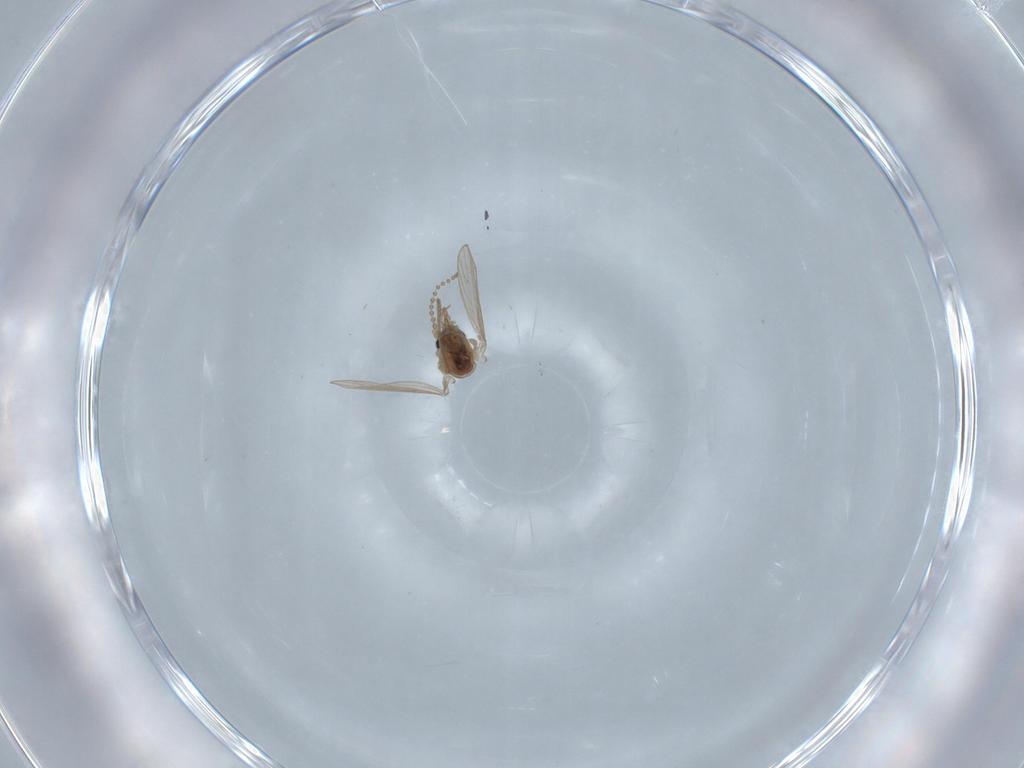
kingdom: Animalia
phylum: Arthropoda
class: Insecta
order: Diptera
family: Psychodidae
